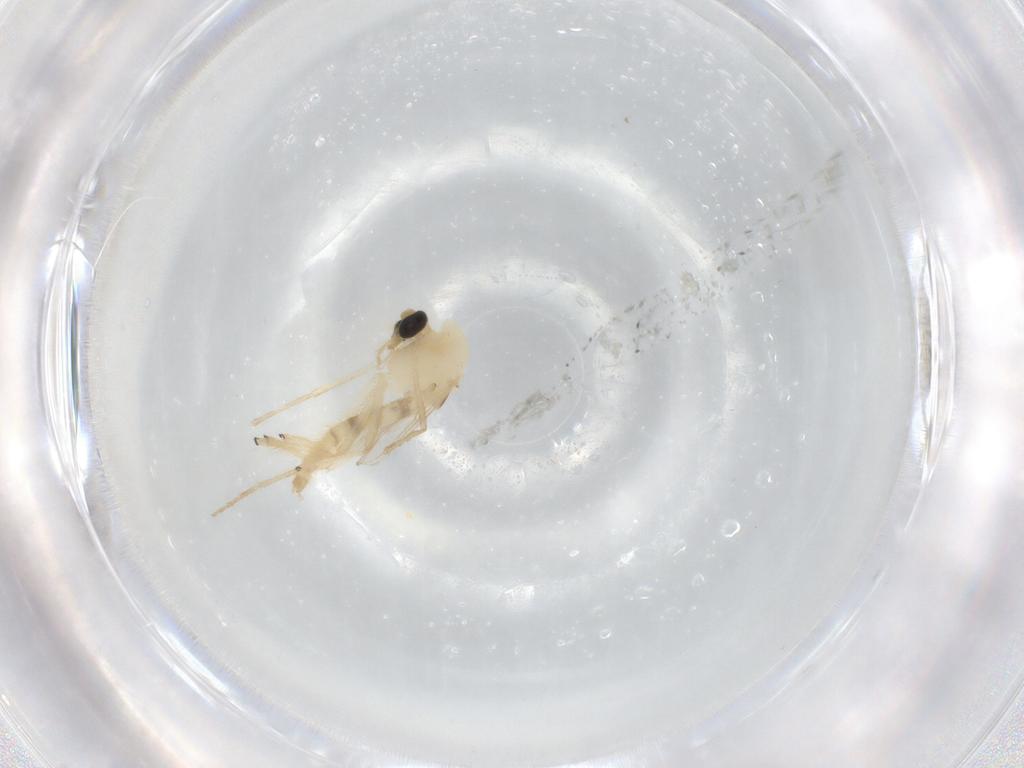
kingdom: Animalia
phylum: Arthropoda
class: Insecta
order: Diptera
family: Chironomidae
